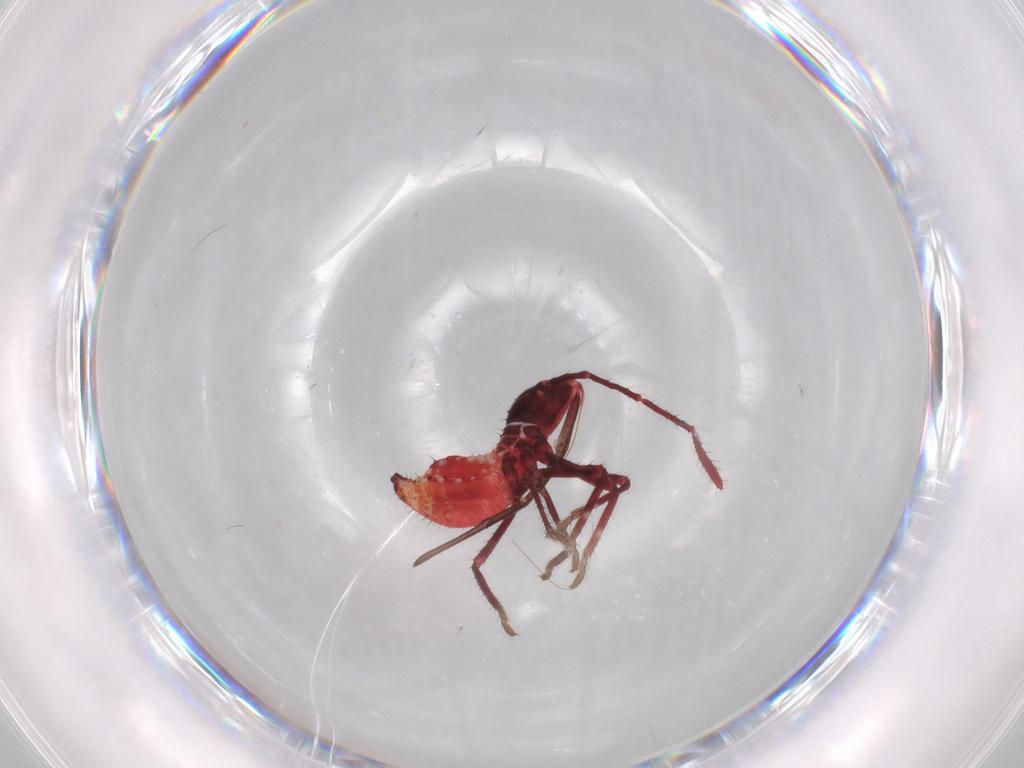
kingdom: Animalia
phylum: Arthropoda
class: Insecta
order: Hemiptera
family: Coreidae
